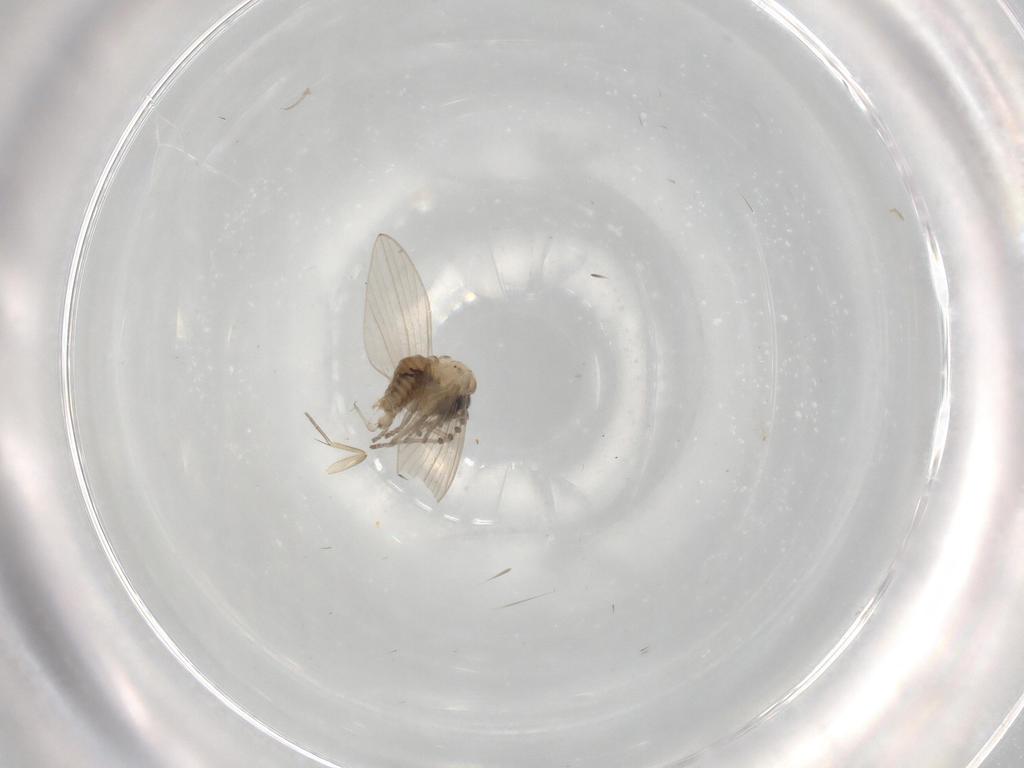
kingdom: Animalia
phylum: Arthropoda
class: Insecta
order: Diptera
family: Psychodidae
